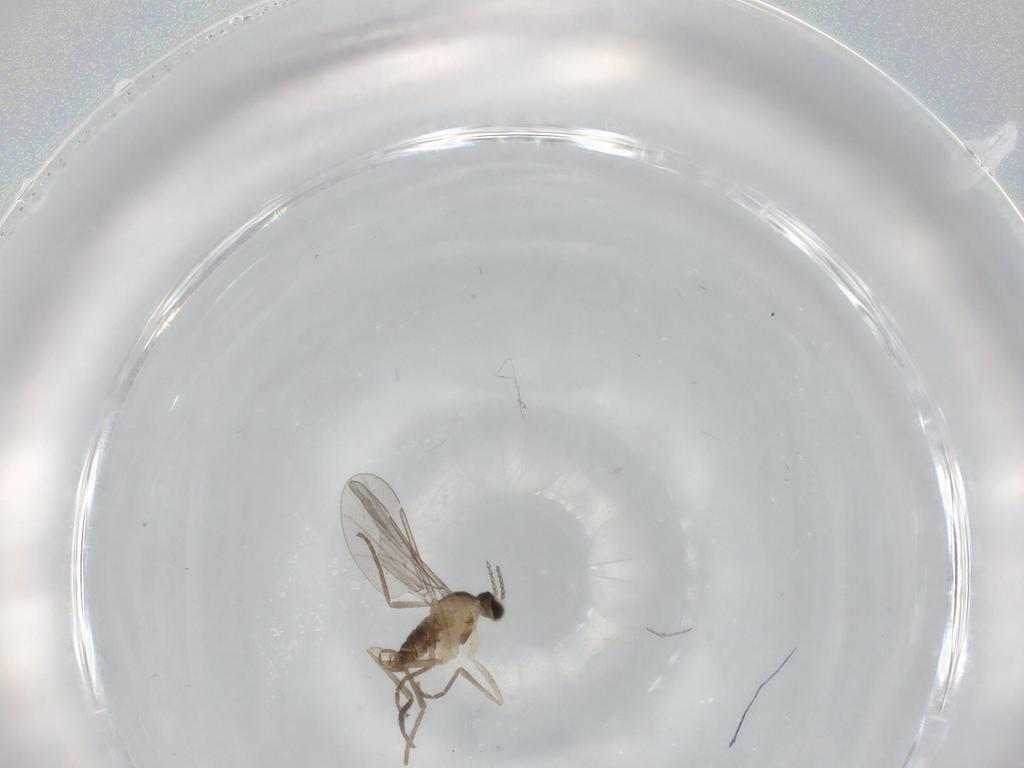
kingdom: Animalia
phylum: Arthropoda
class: Insecta
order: Diptera
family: Cecidomyiidae
